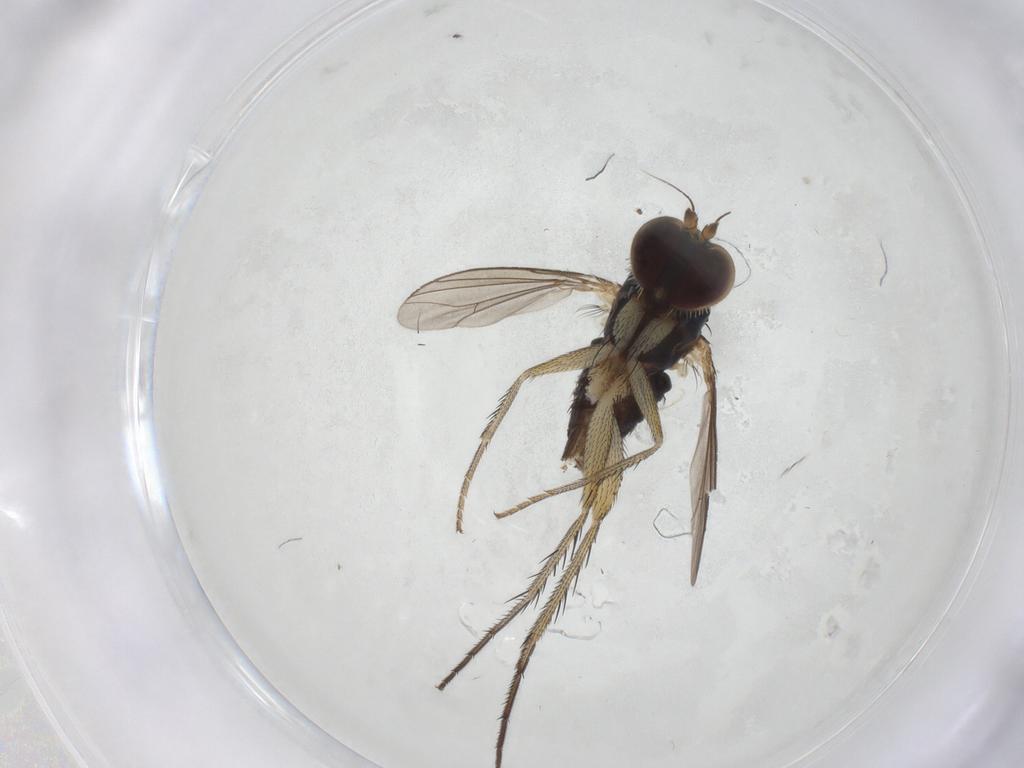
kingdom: Animalia
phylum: Arthropoda
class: Insecta
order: Diptera
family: Dolichopodidae
